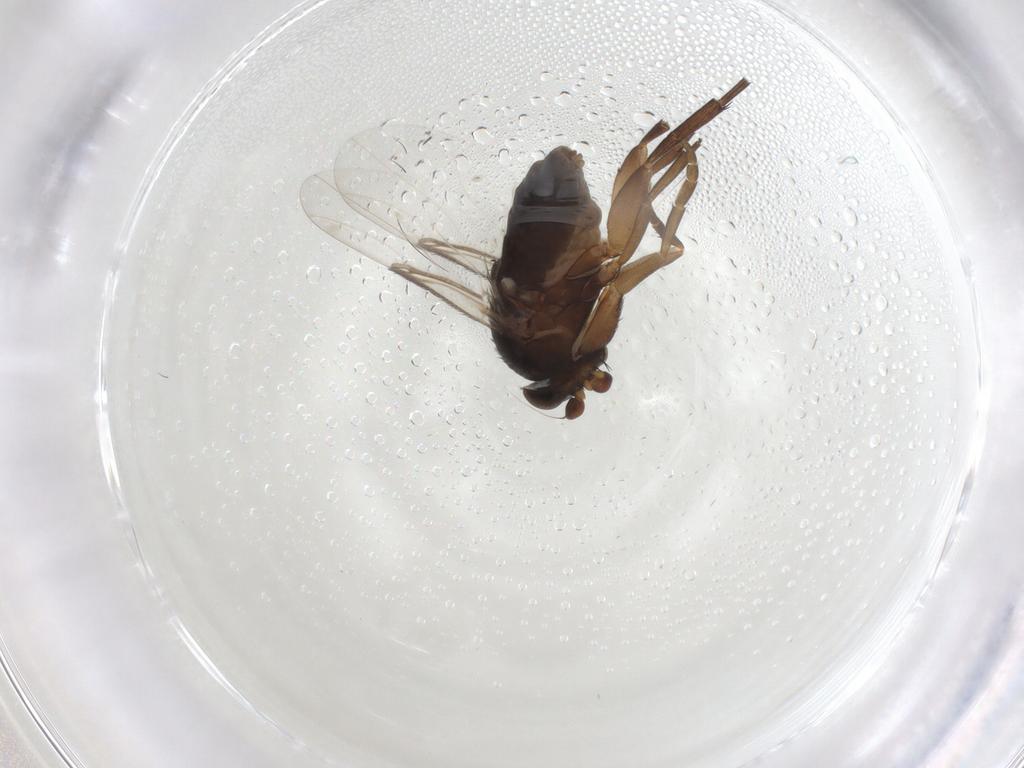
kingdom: Animalia
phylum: Arthropoda
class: Insecta
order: Diptera
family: Phoridae
